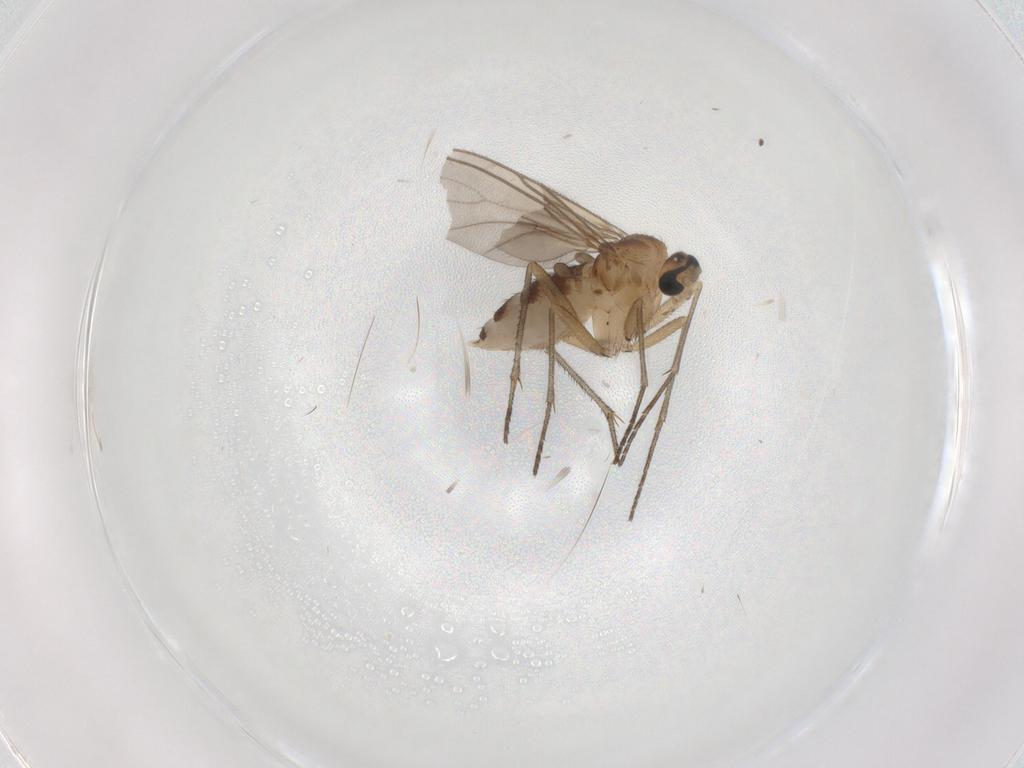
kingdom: Animalia
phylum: Arthropoda
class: Insecta
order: Diptera
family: Sciaridae
